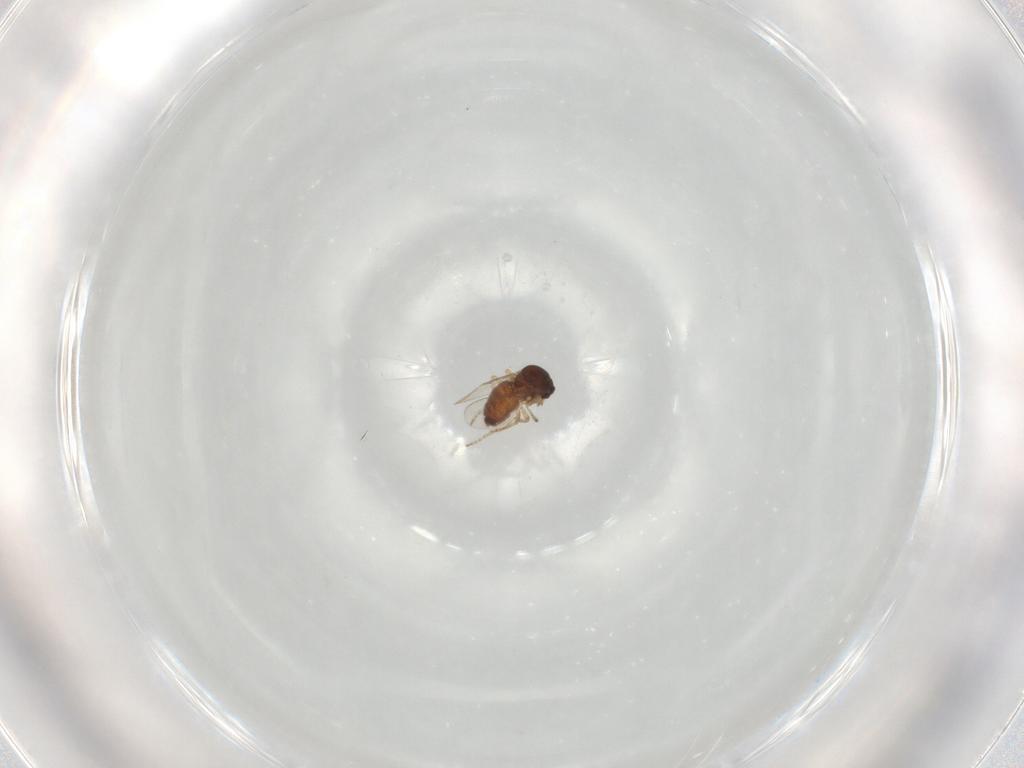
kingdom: Animalia
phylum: Arthropoda
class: Insecta
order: Diptera
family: Ceratopogonidae
